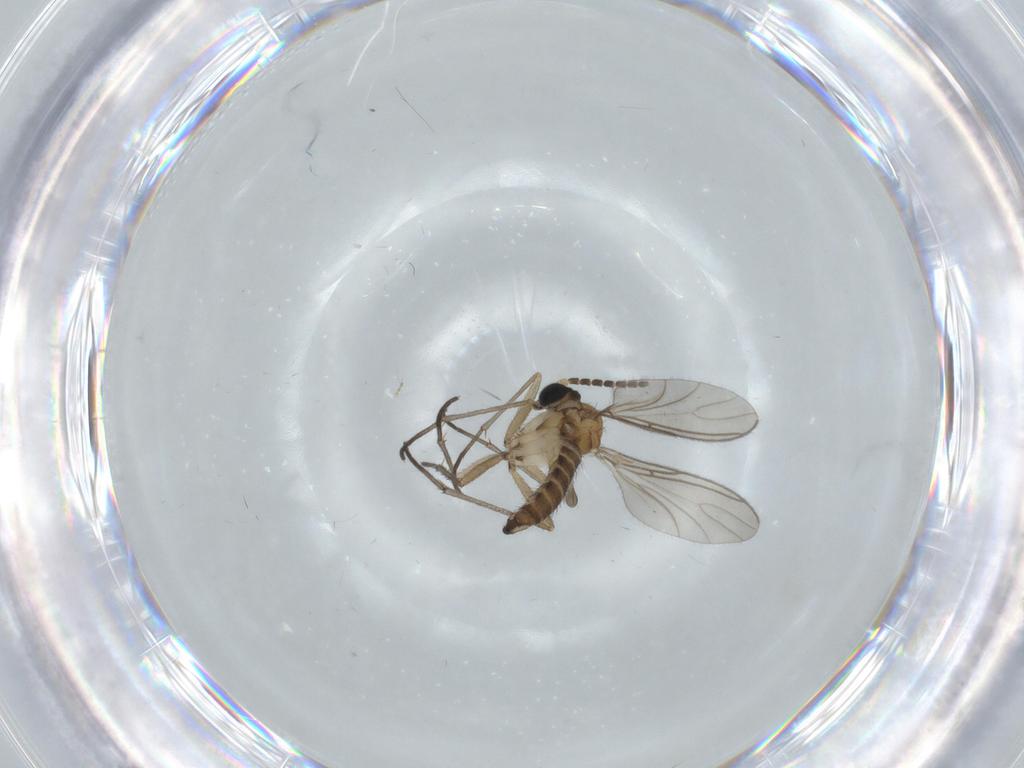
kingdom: Animalia
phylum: Arthropoda
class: Insecta
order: Diptera
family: Sciaridae
